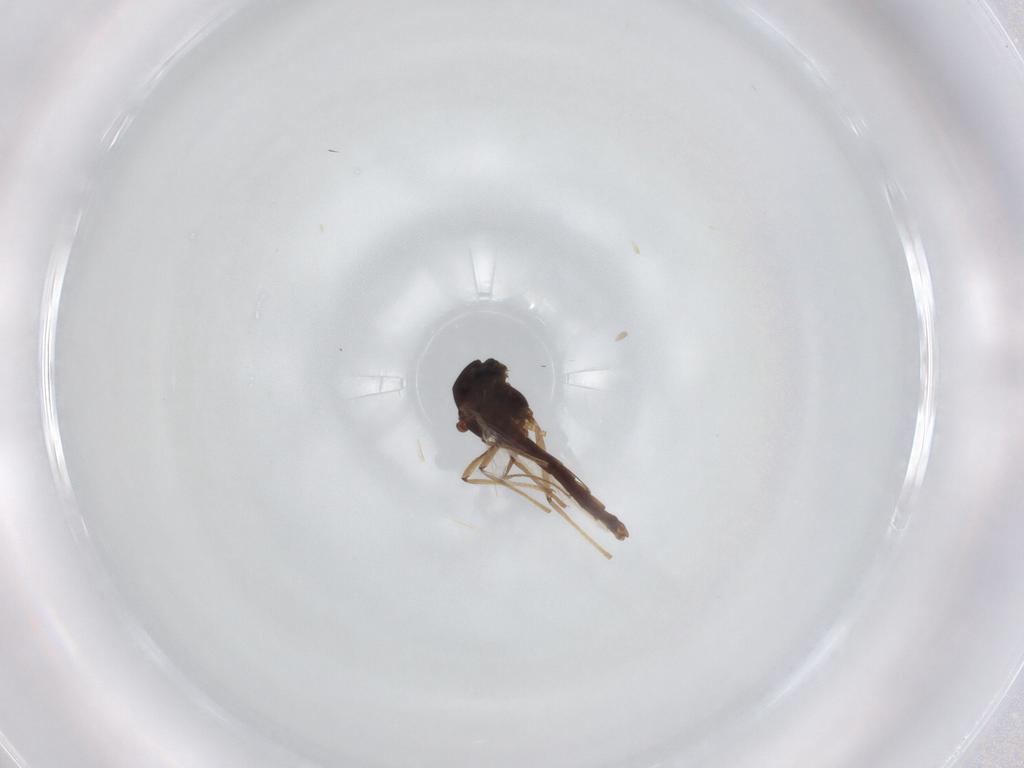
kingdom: Animalia
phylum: Arthropoda
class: Insecta
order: Diptera
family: Chironomidae
